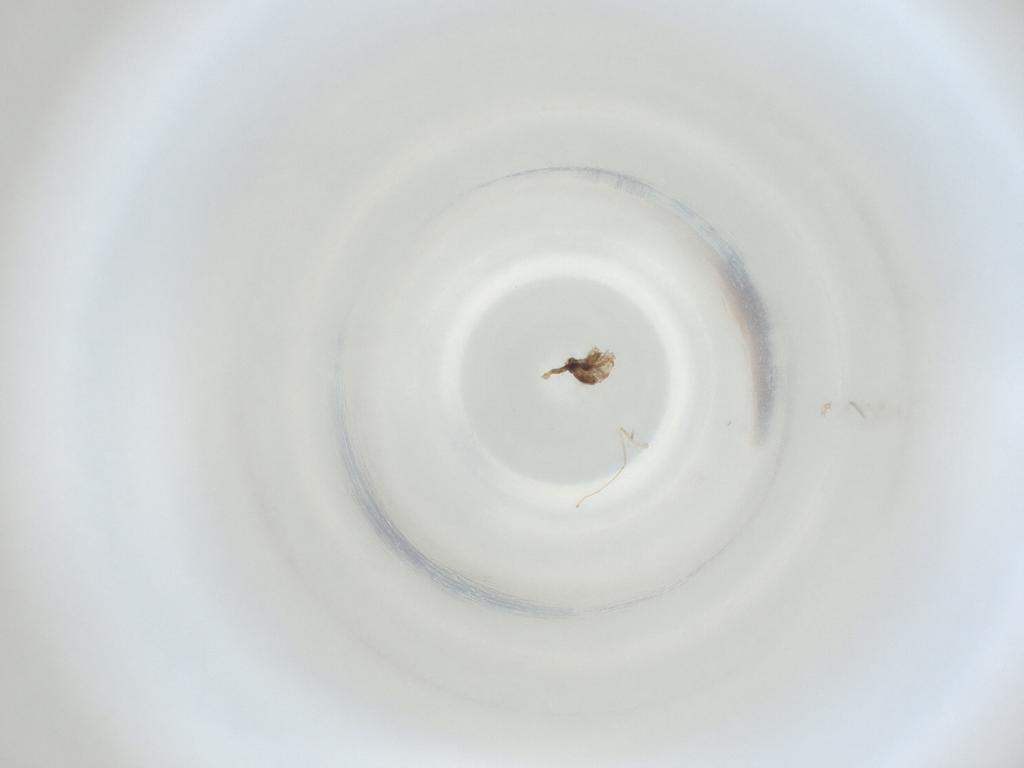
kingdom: Animalia
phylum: Arthropoda
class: Insecta
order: Diptera
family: Cecidomyiidae
